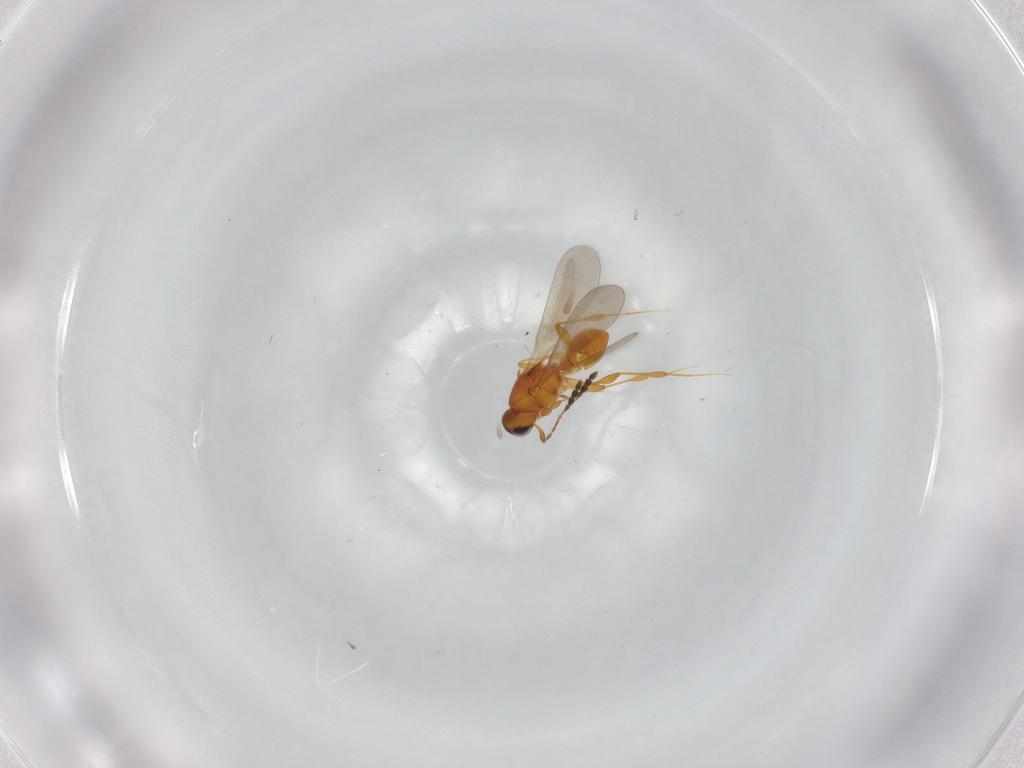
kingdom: Animalia
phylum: Arthropoda
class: Insecta
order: Hymenoptera
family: Platygastridae
